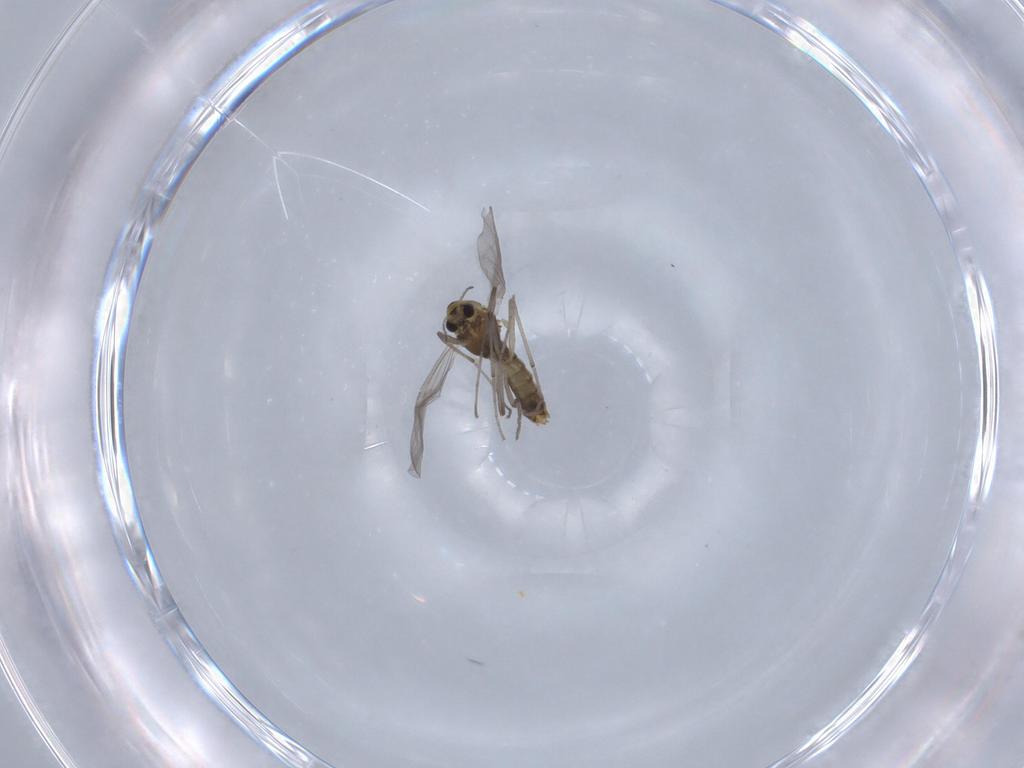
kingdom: Animalia
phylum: Arthropoda
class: Insecta
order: Diptera
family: Chironomidae
